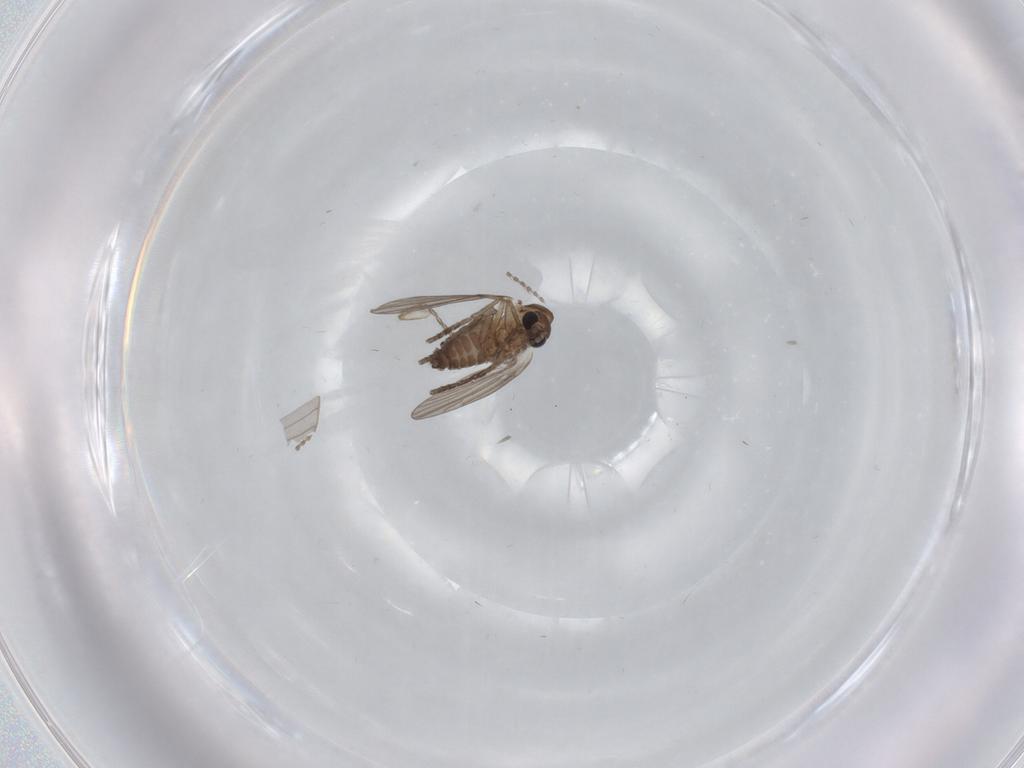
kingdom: Animalia
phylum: Arthropoda
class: Insecta
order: Diptera
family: Cecidomyiidae
